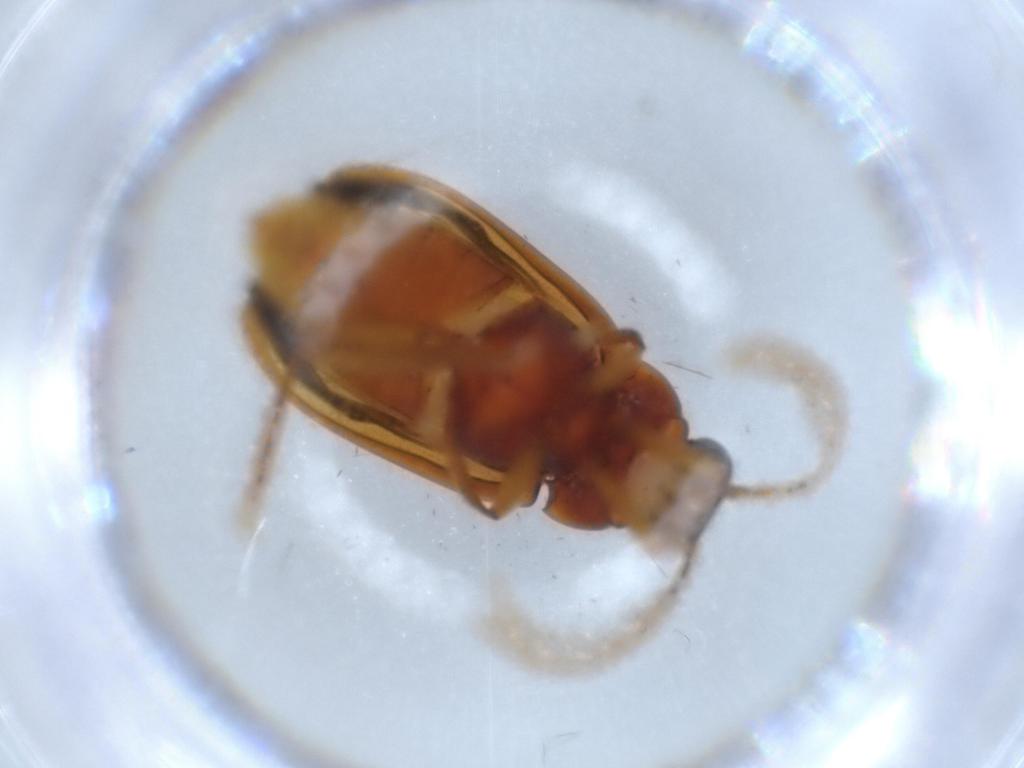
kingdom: Animalia
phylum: Arthropoda
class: Insecta
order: Coleoptera
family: Ptilodactylidae
